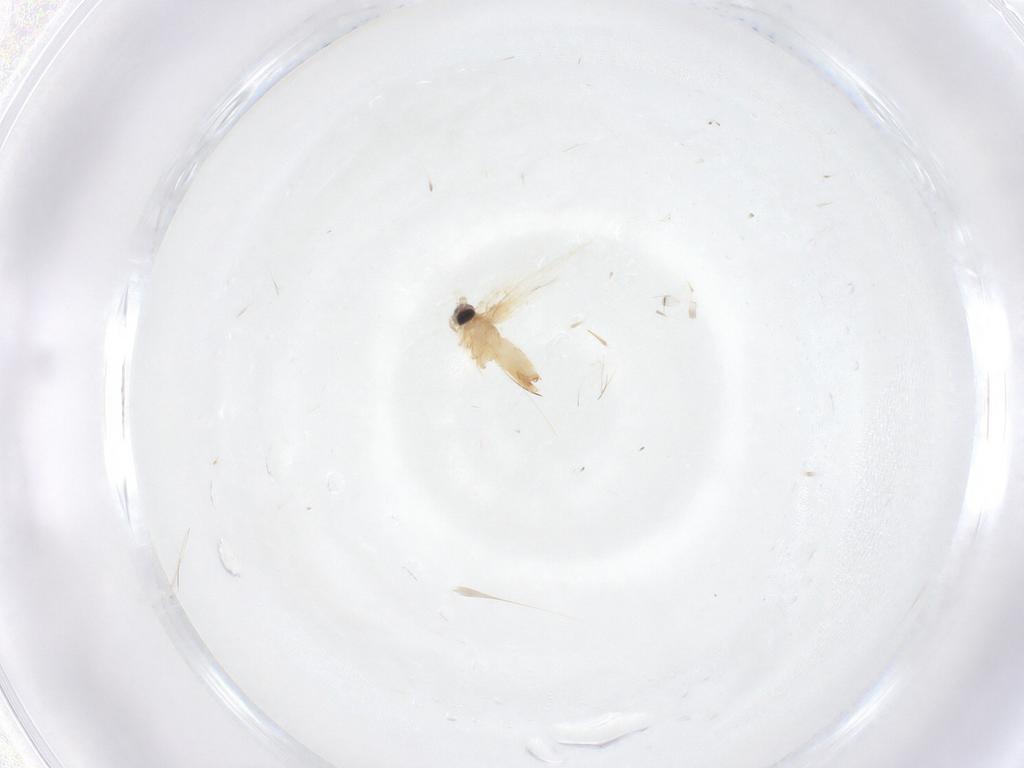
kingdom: Animalia
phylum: Arthropoda
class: Insecta
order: Lepidoptera
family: Crambidae
